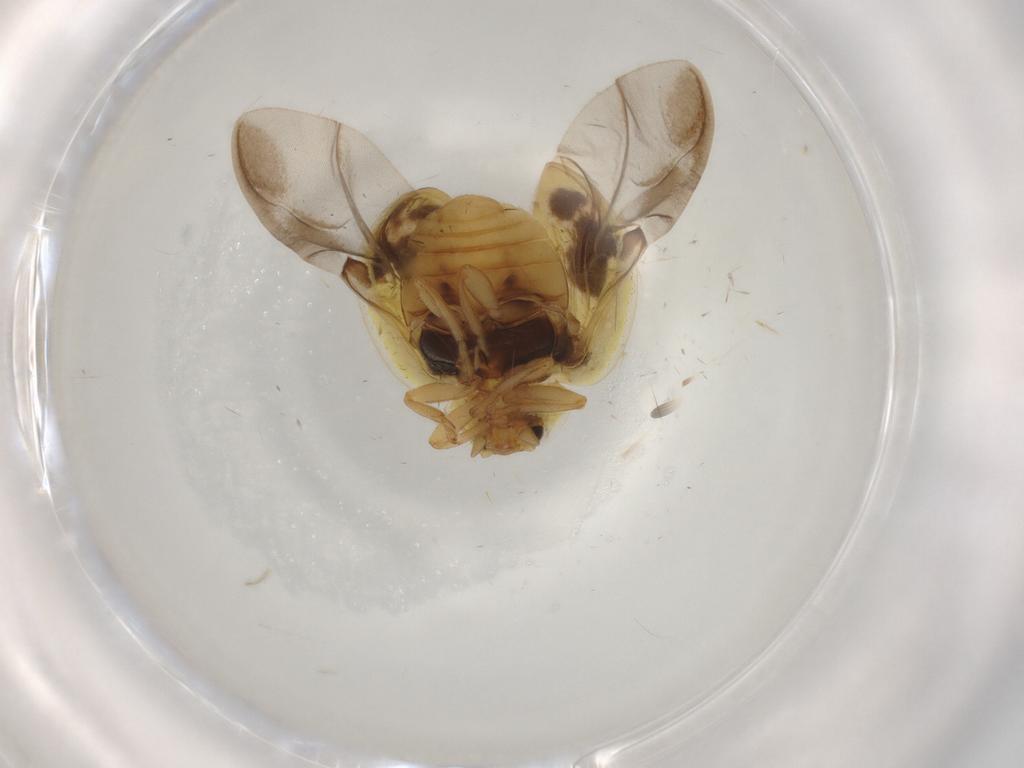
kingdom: Animalia
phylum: Arthropoda
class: Insecta
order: Coleoptera
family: Coccinellidae
